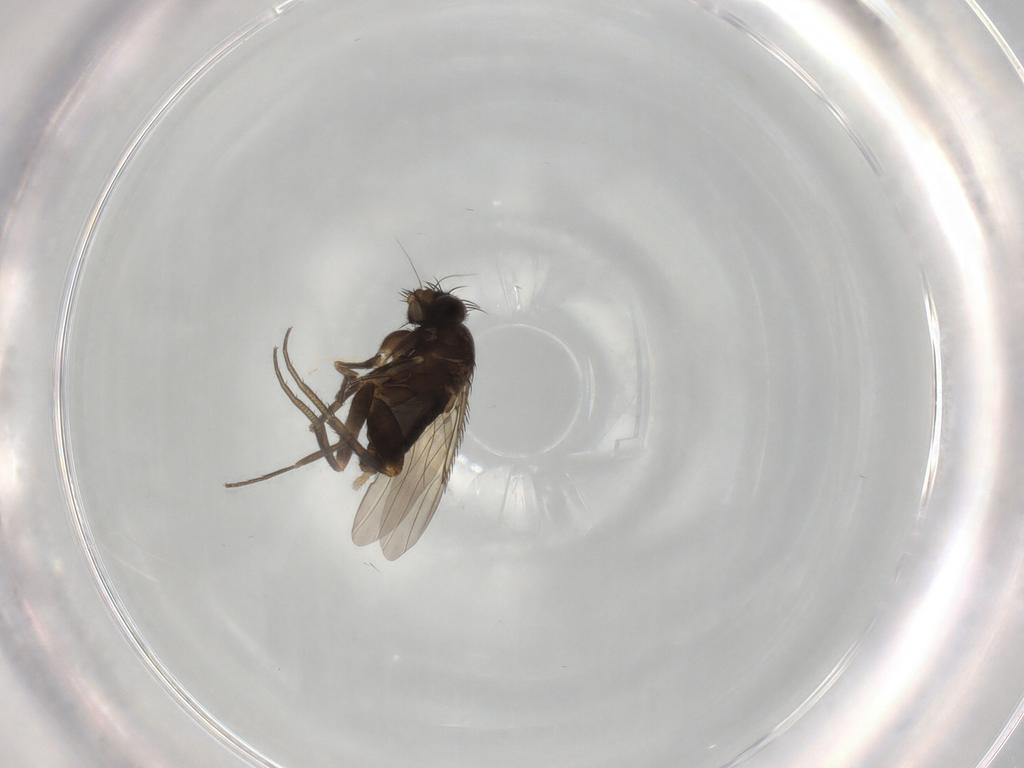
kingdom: Animalia
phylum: Arthropoda
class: Insecta
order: Diptera
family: Phoridae
